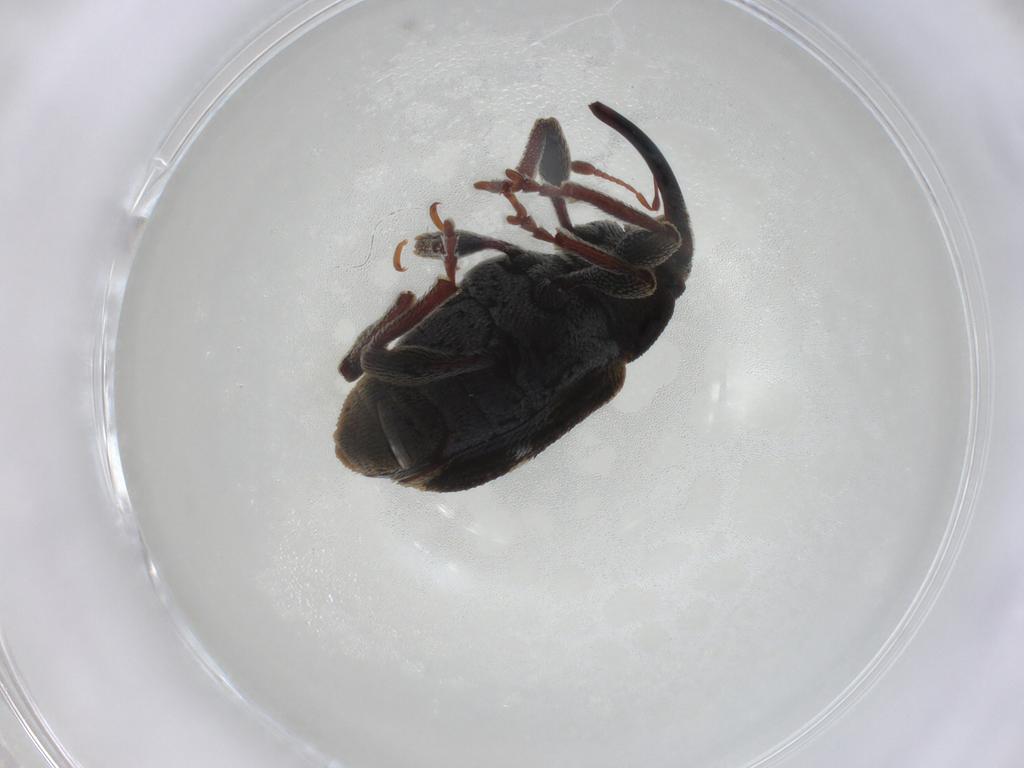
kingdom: Animalia
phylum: Arthropoda
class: Insecta
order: Coleoptera
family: Curculionidae
